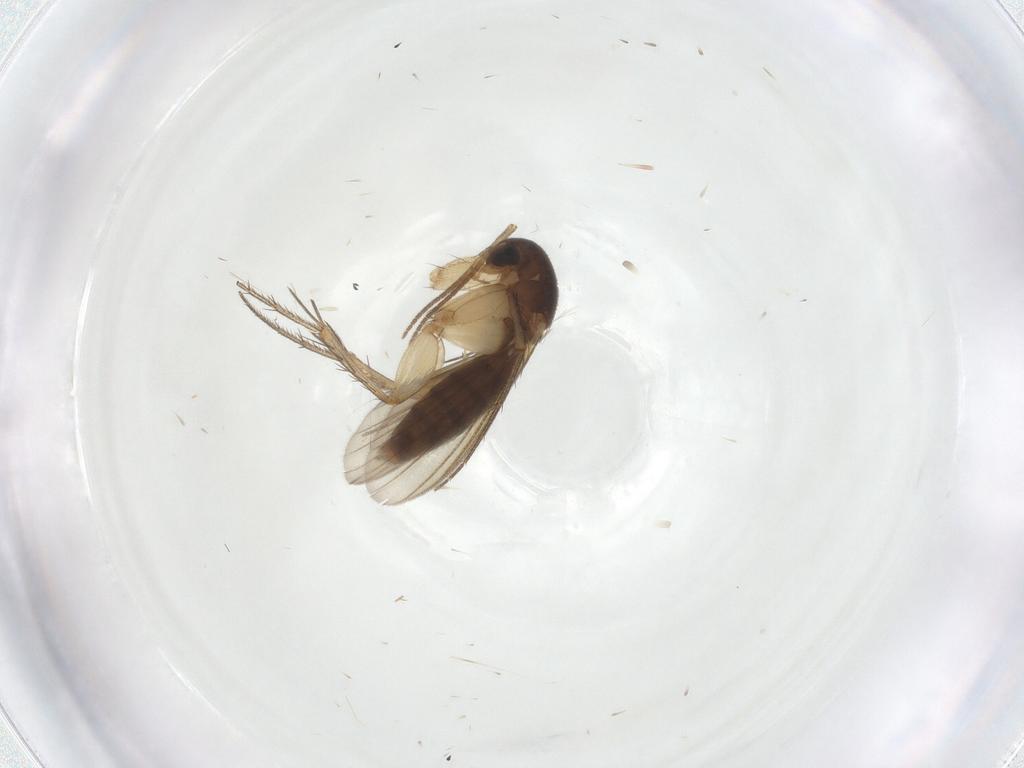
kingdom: Animalia
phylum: Arthropoda
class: Insecta
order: Diptera
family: Mycetophilidae
